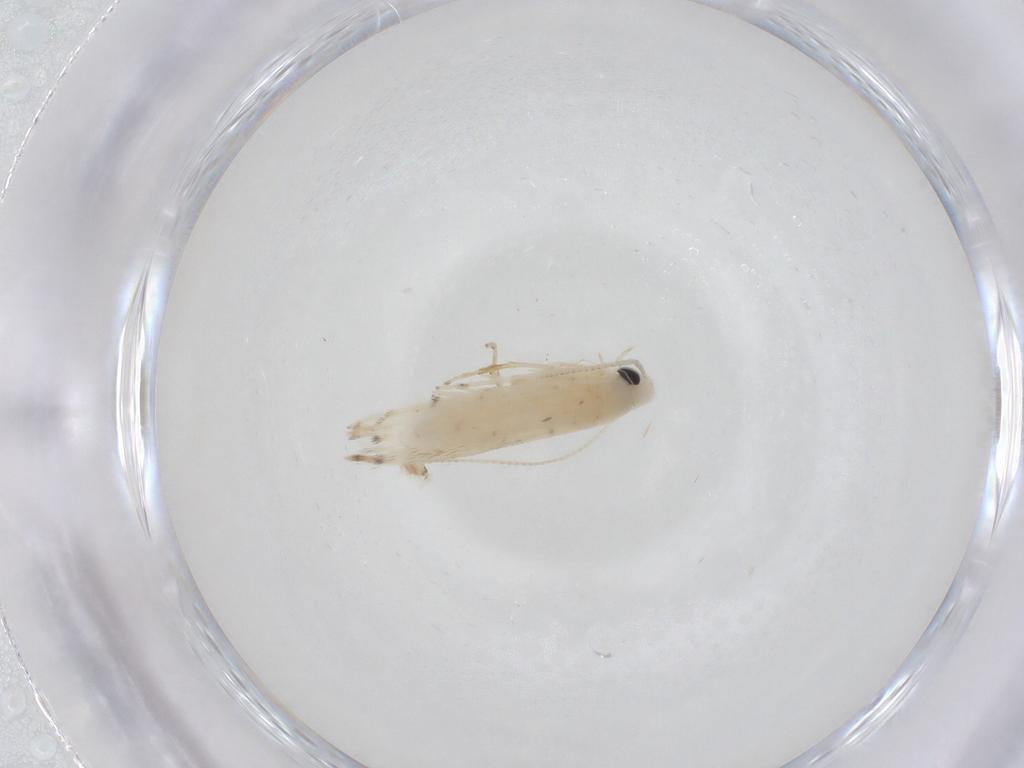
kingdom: Animalia
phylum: Arthropoda
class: Insecta
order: Lepidoptera
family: Gracillariidae
